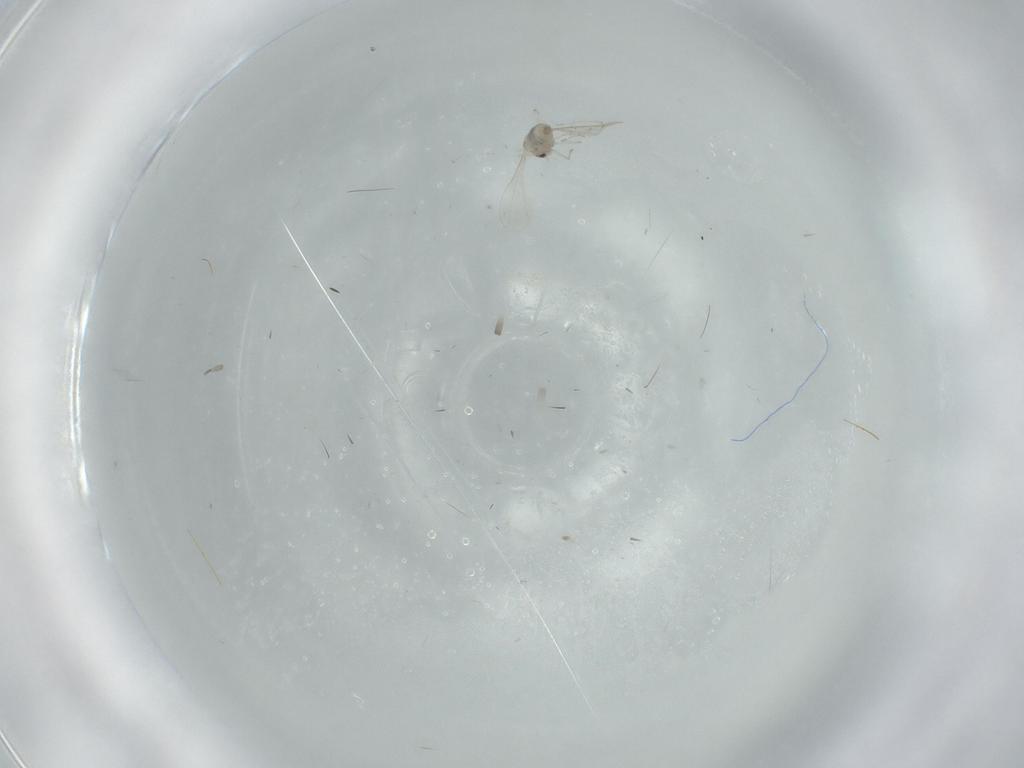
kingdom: Animalia
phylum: Arthropoda
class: Insecta
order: Diptera
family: Cecidomyiidae
